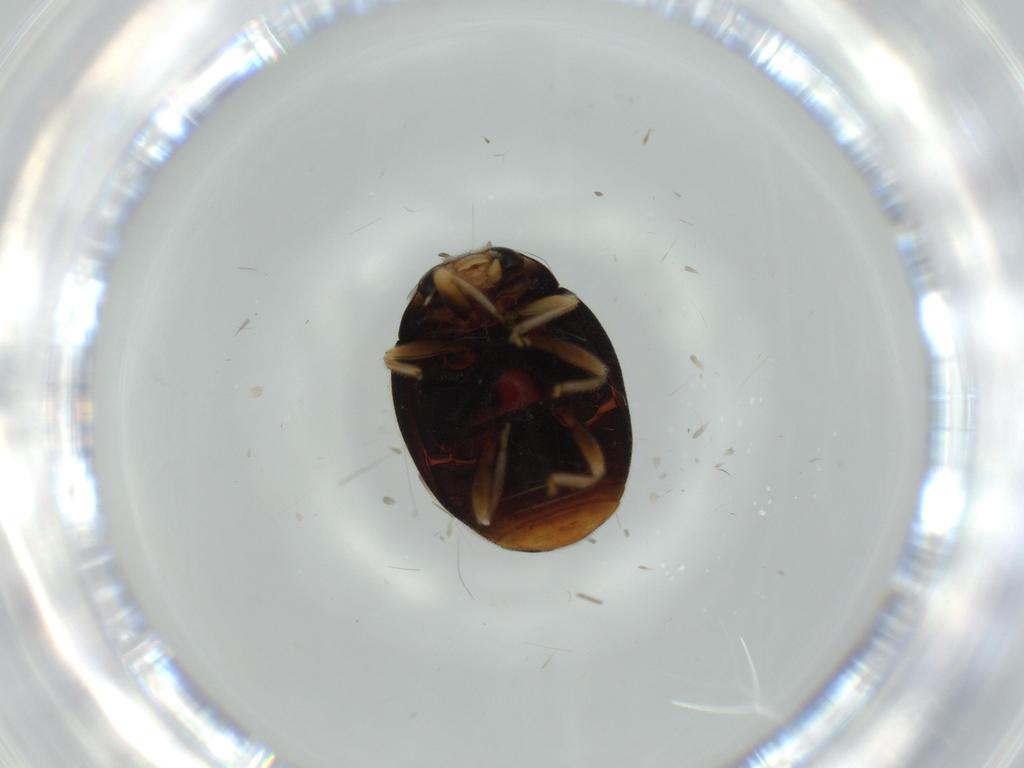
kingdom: Animalia
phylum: Arthropoda
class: Insecta
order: Coleoptera
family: Coccinellidae
